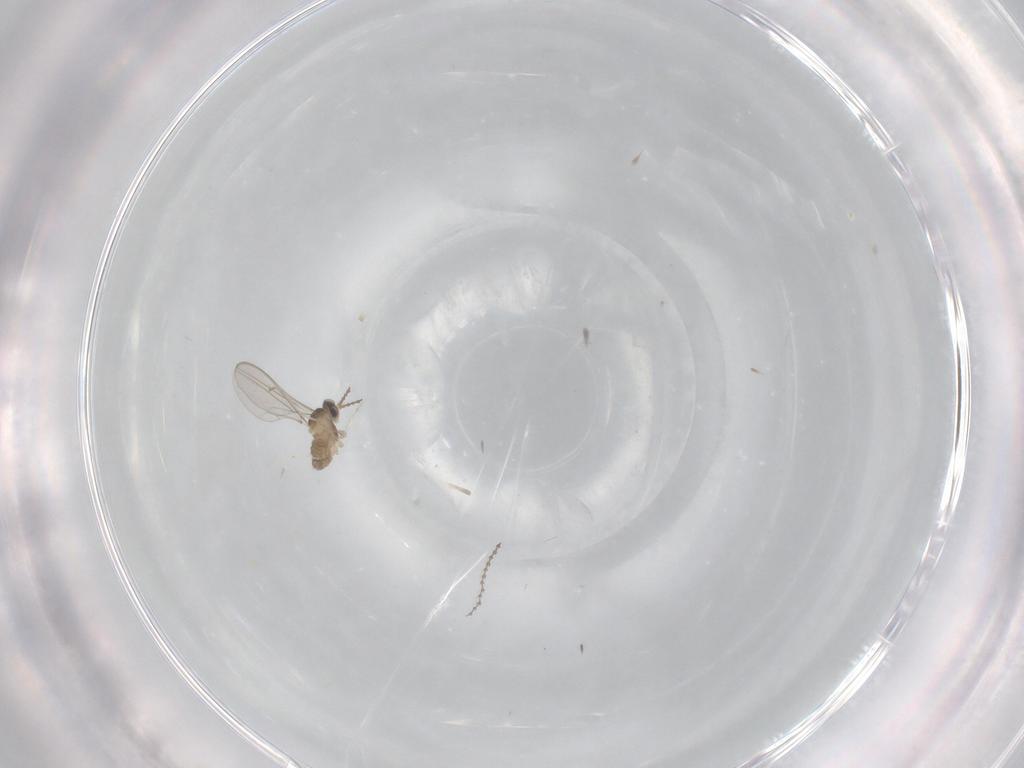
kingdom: Animalia
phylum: Arthropoda
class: Insecta
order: Diptera
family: Cecidomyiidae
